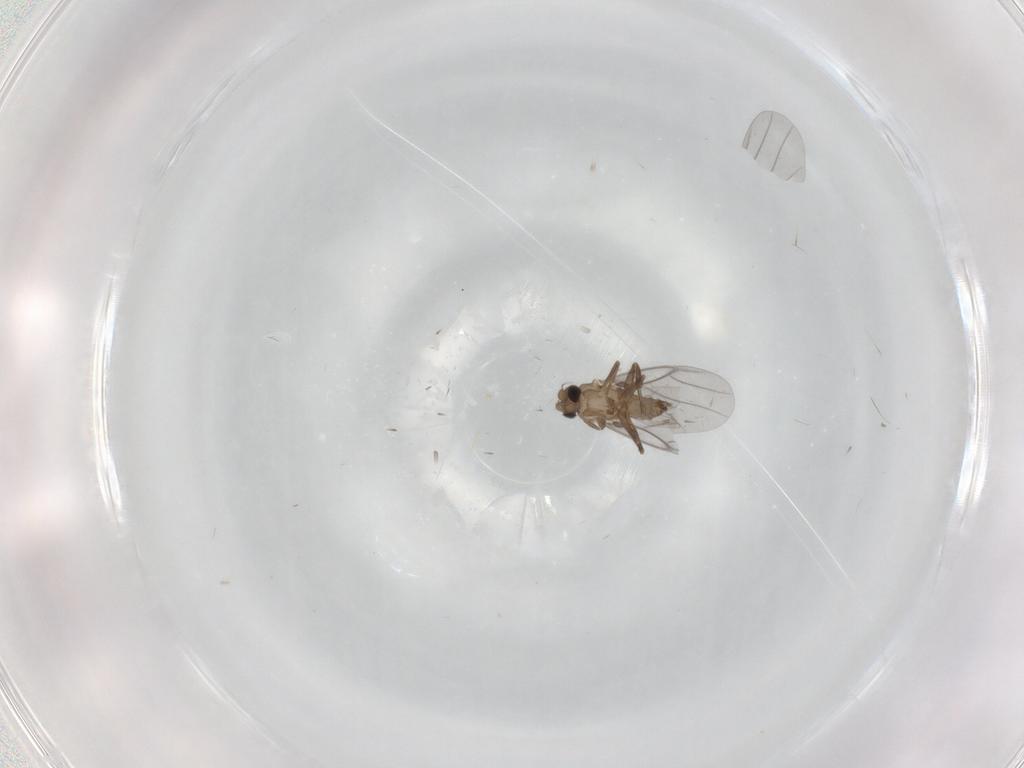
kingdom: Animalia
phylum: Arthropoda
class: Insecta
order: Diptera
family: Cecidomyiidae
